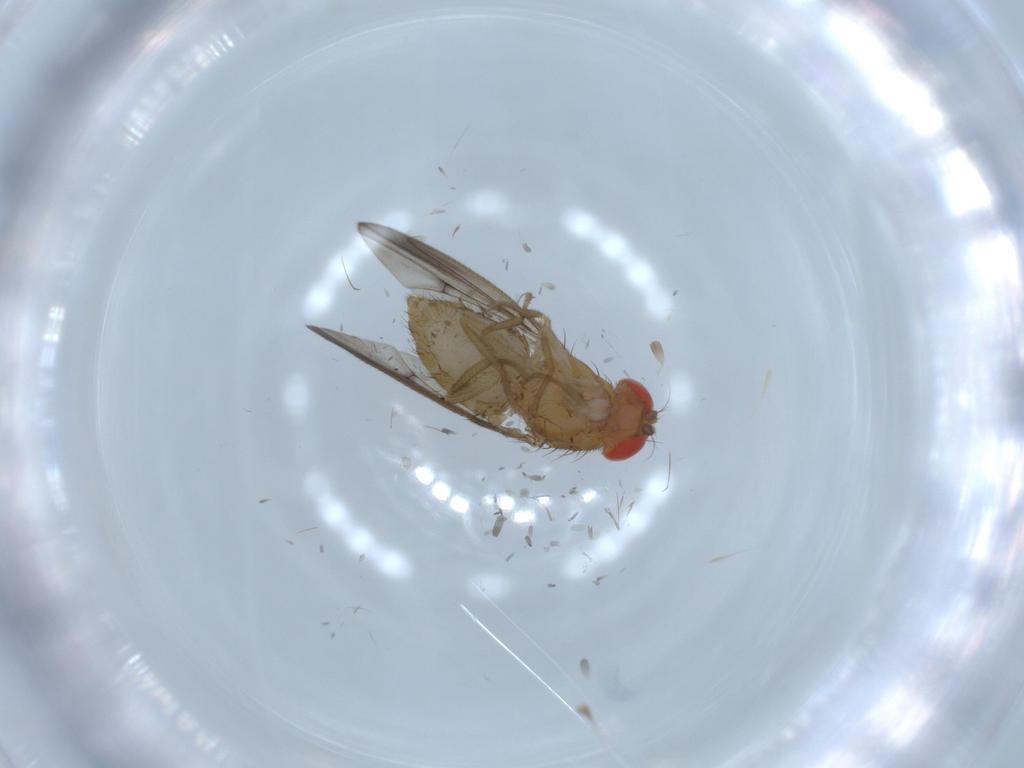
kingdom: Animalia
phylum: Arthropoda
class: Insecta
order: Diptera
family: Drosophilidae
